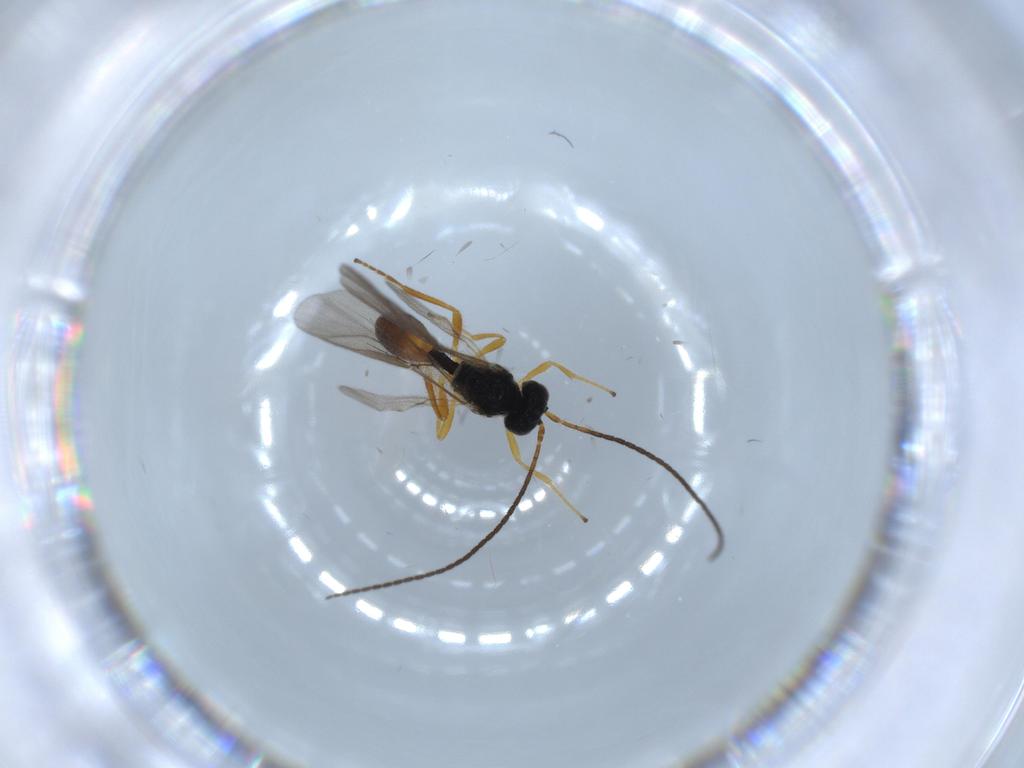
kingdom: Animalia
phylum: Arthropoda
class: Insecta
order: Hymenoptera
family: Braconidae
